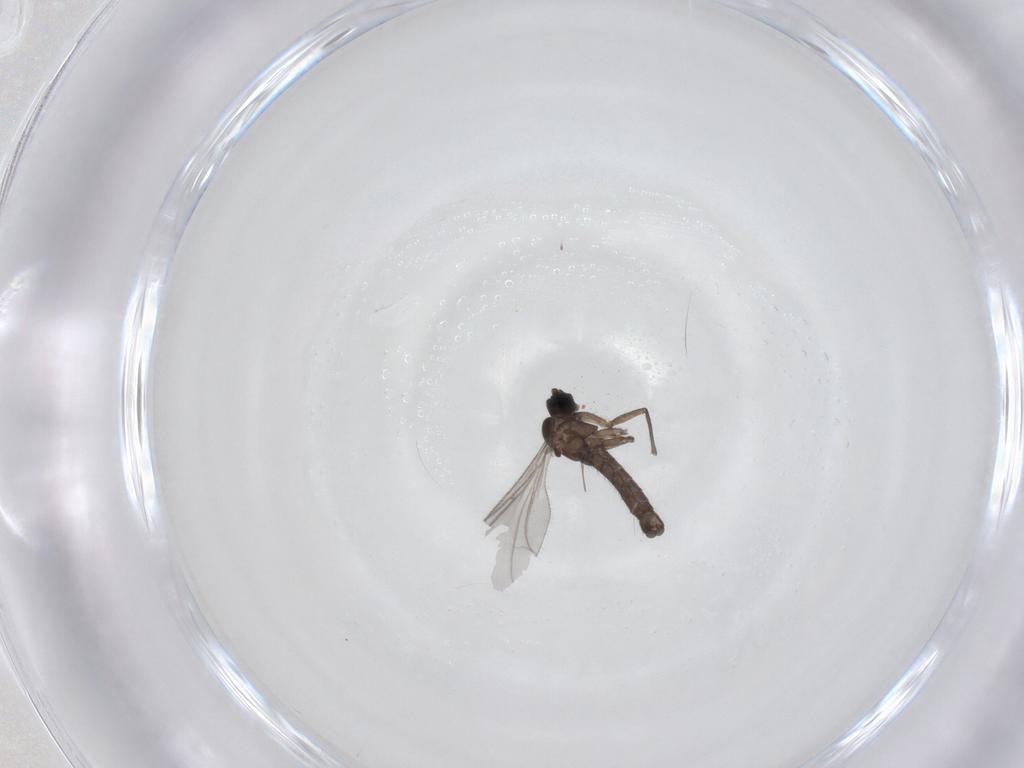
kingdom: Animalia
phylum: Arthropoda
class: Insecta
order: Diptera
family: Sciaridae
